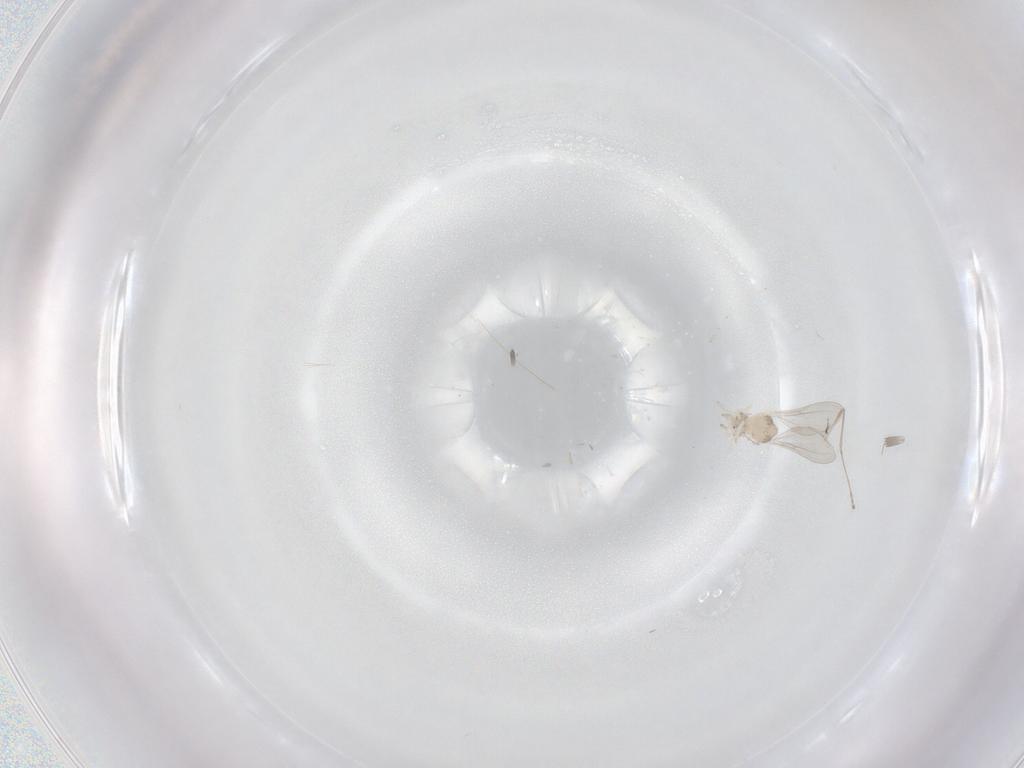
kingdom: Animalia
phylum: Arthropoda
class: Insecta
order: Diptera
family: Cecidomyiidae
